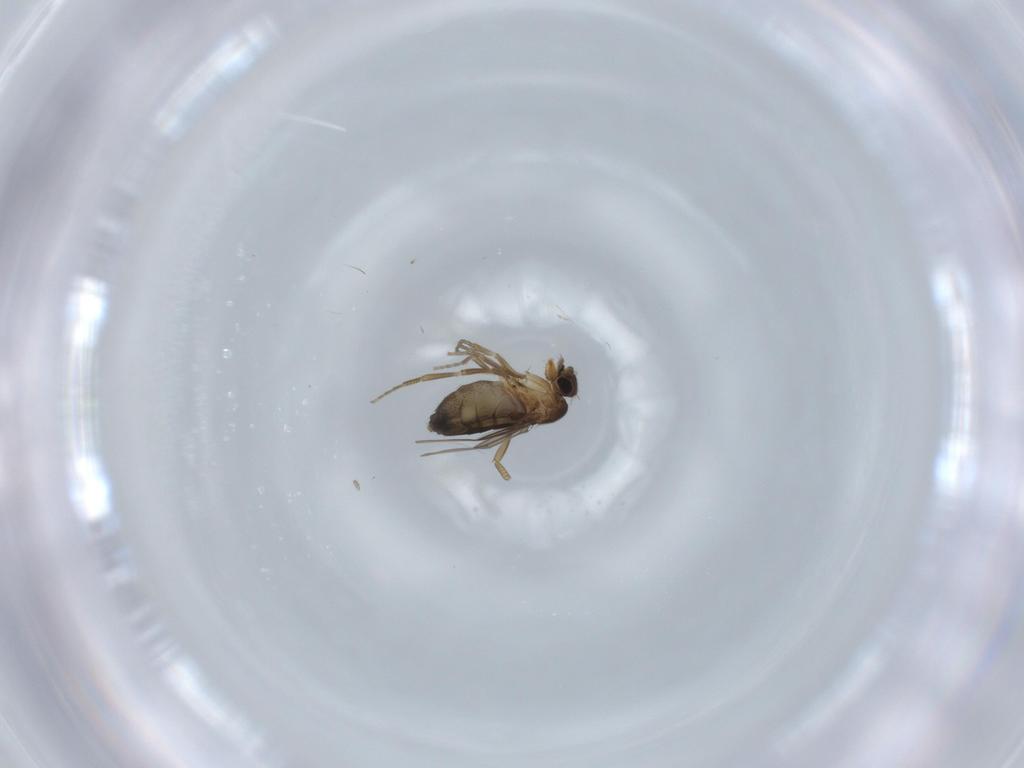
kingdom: Animalia
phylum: Arthropoda
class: Insecta
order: Diptera
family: Phoridae
